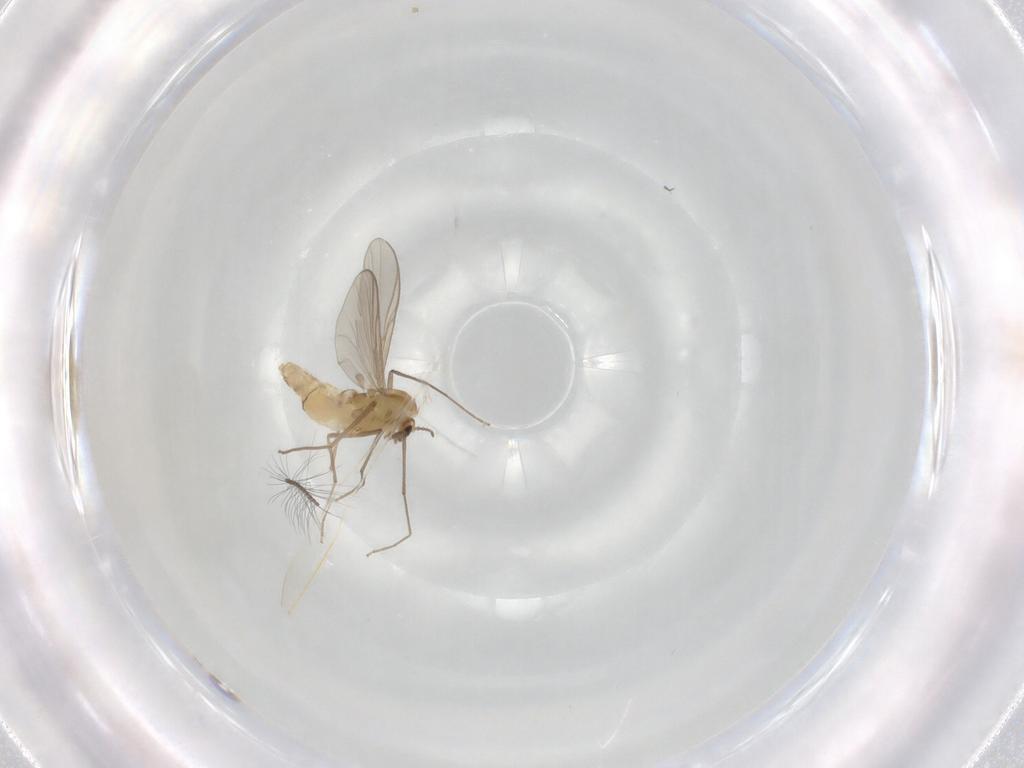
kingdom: Animalia
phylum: Arthropoda
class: Insecta
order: Diptera
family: Chironomidae
